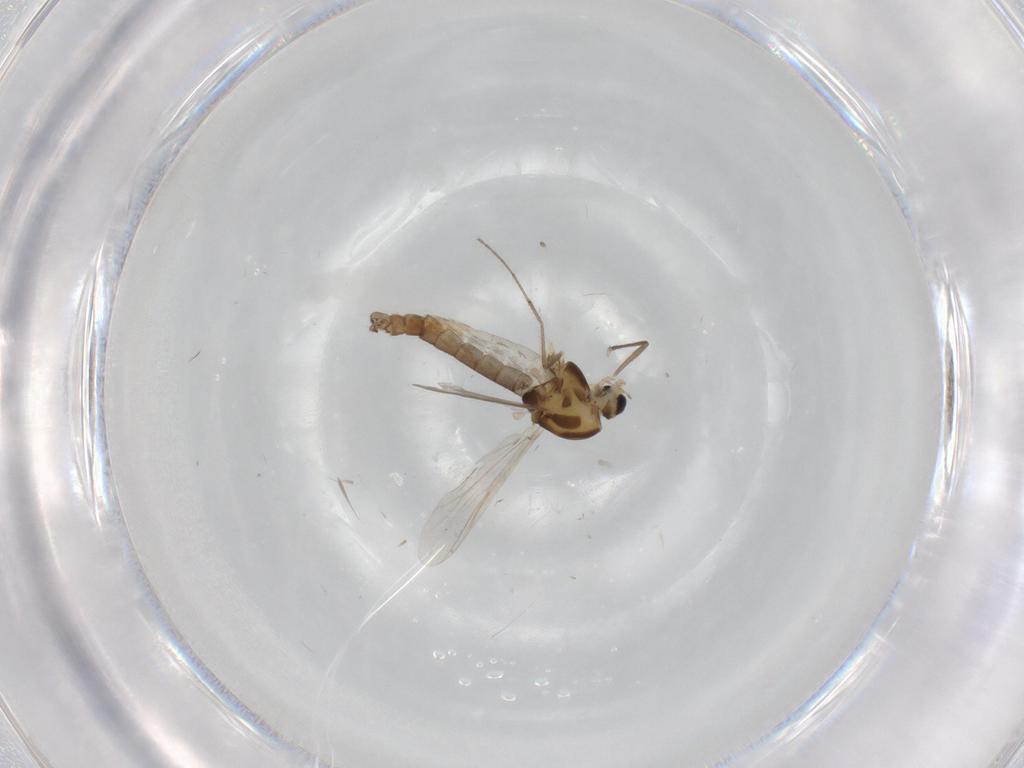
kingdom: Animalia
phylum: Arthropoda
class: Insecta
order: Diptera
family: Chironomidae
